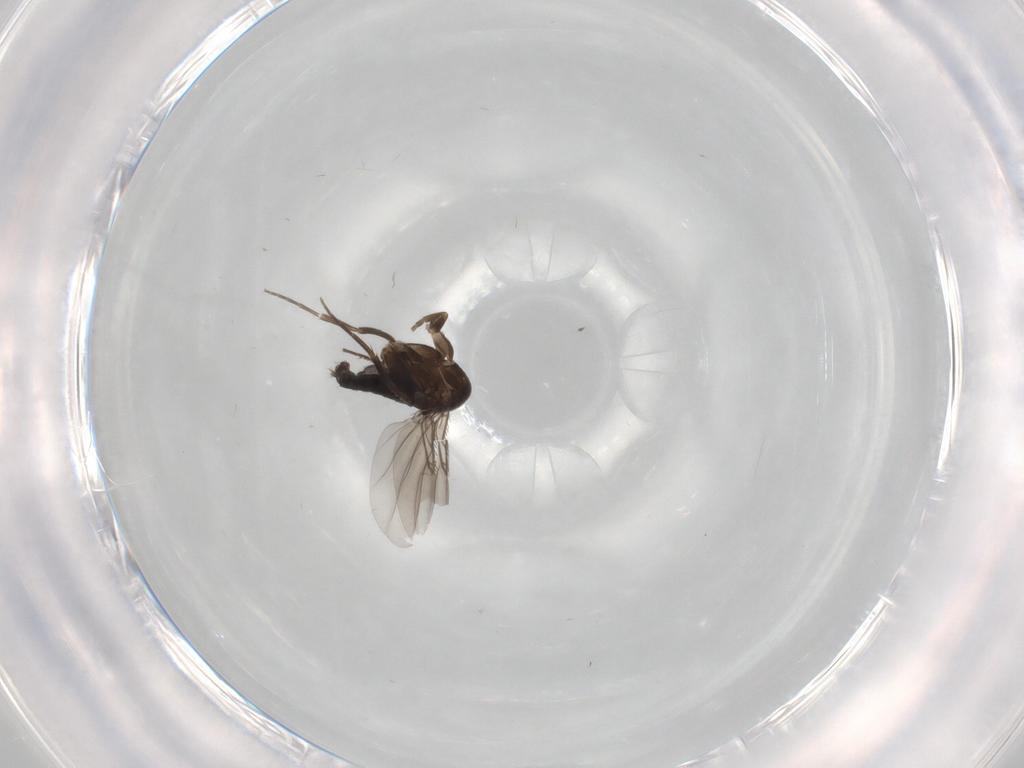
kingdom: Animalia
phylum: Arthropoda
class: Insecta
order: Diptera
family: Phoridae
